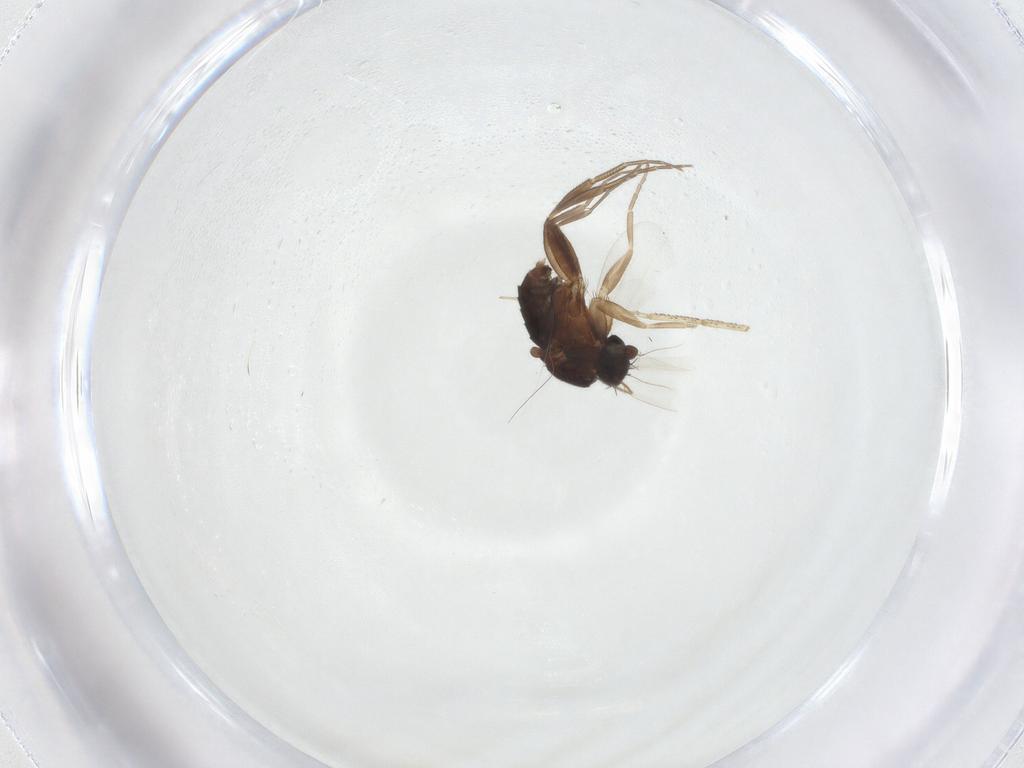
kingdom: Animalia
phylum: Arthropoda
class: Insecta
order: Diptera
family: Phoridae
